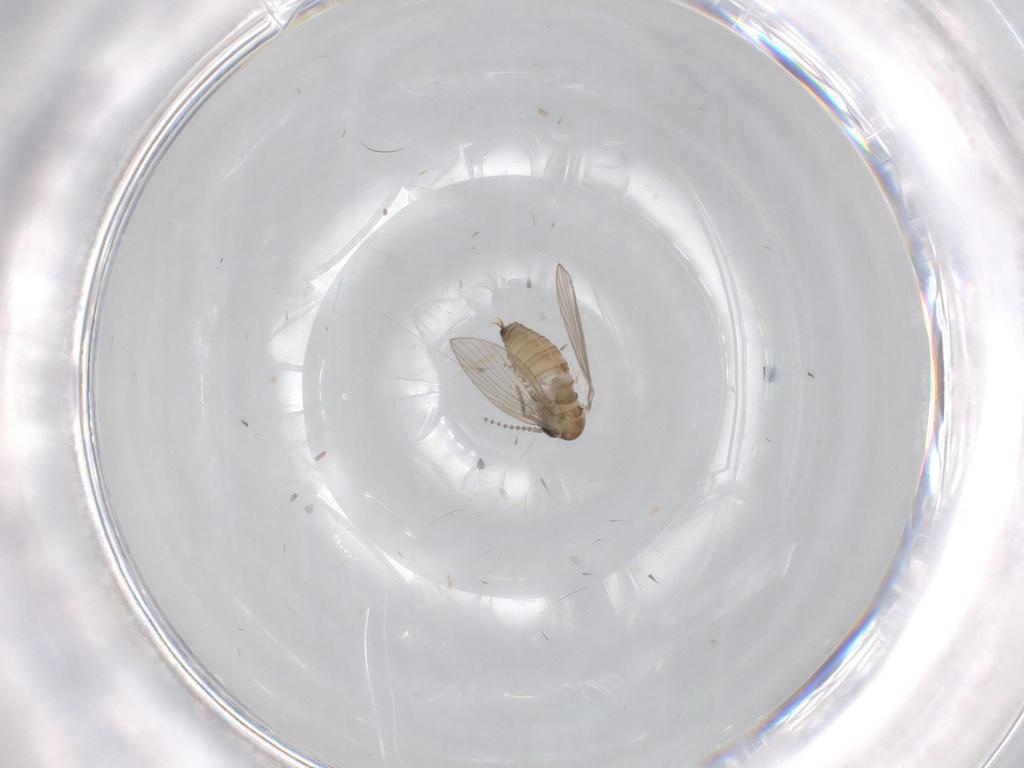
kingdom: Animalia
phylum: Arthropoda
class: Insecta
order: Diptera
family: Psychodidae
